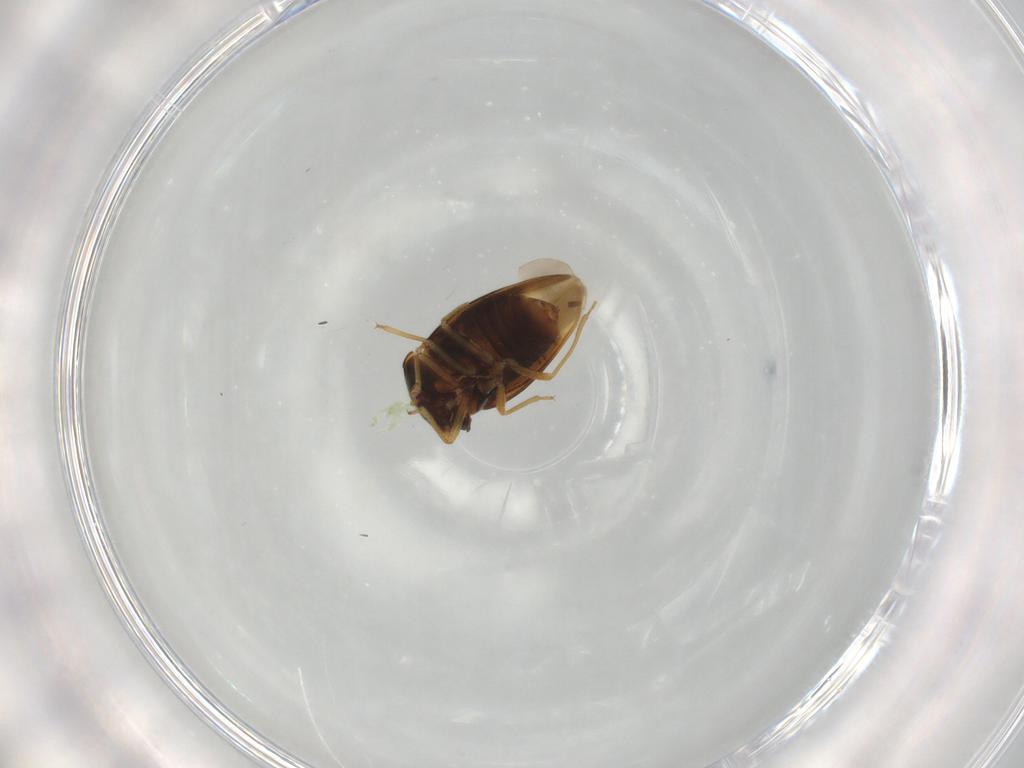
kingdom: Animalia
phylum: Arthropoda
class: Insecta
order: Hemiptera
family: Schizopteridae
